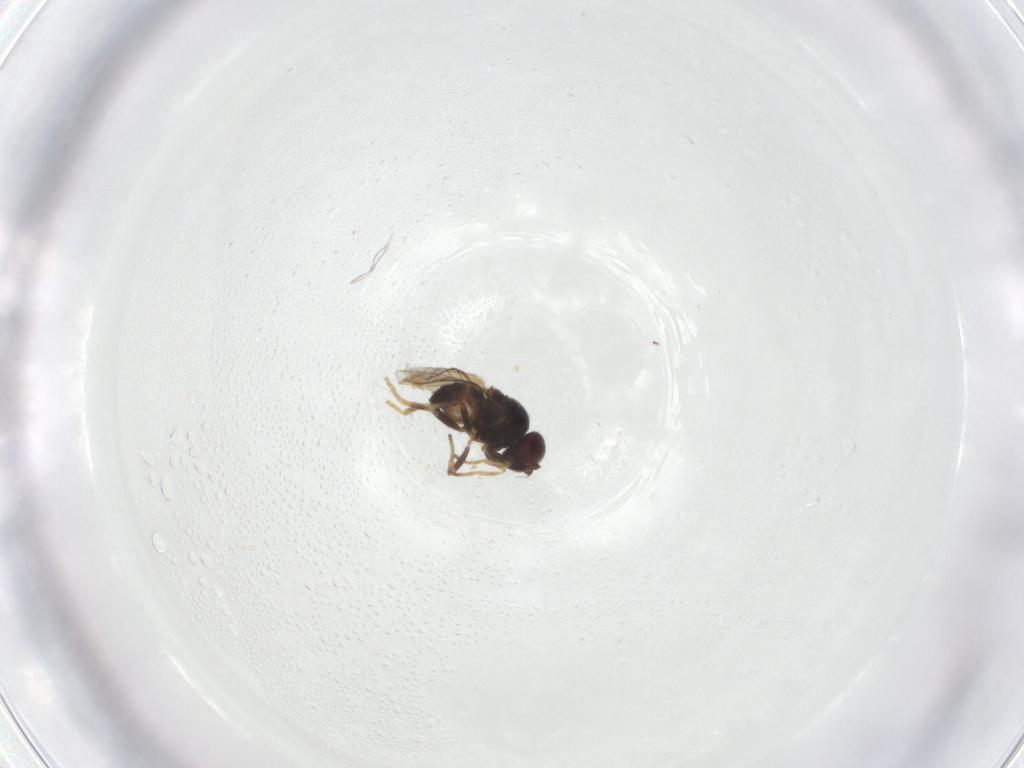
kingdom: Animalia
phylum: Arthropoda
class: Insecta
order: Diptera
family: Chloropidae
